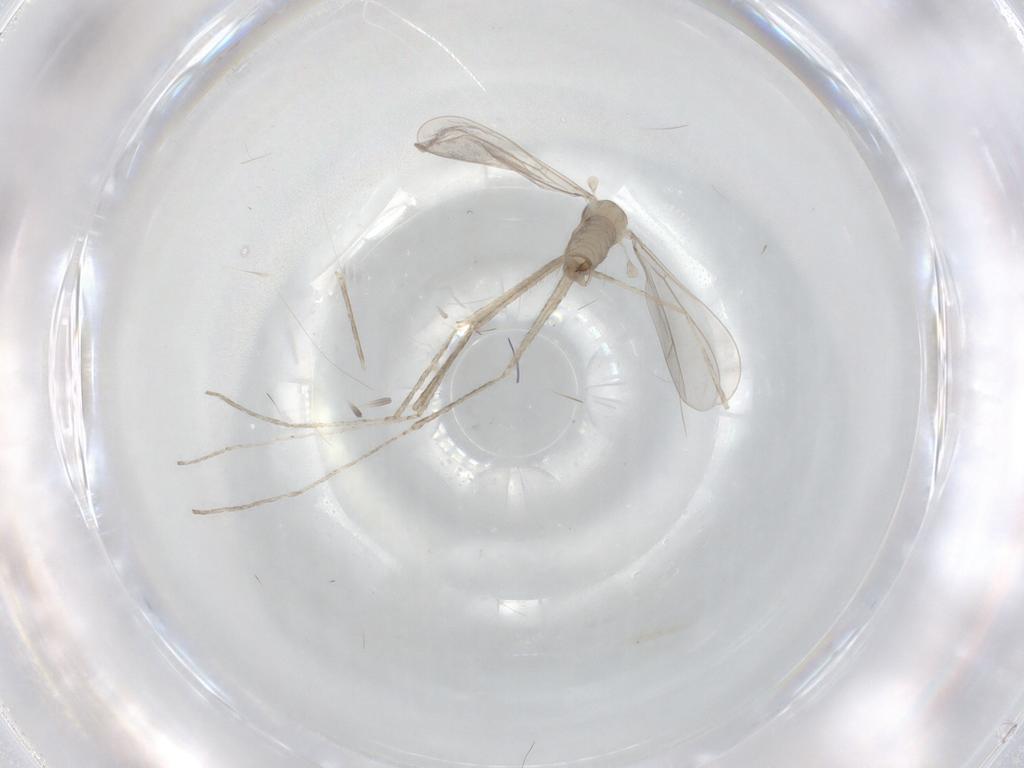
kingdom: Animalia
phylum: Arthropoda
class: Insecta
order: Diptera
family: Cecidomyiidae
